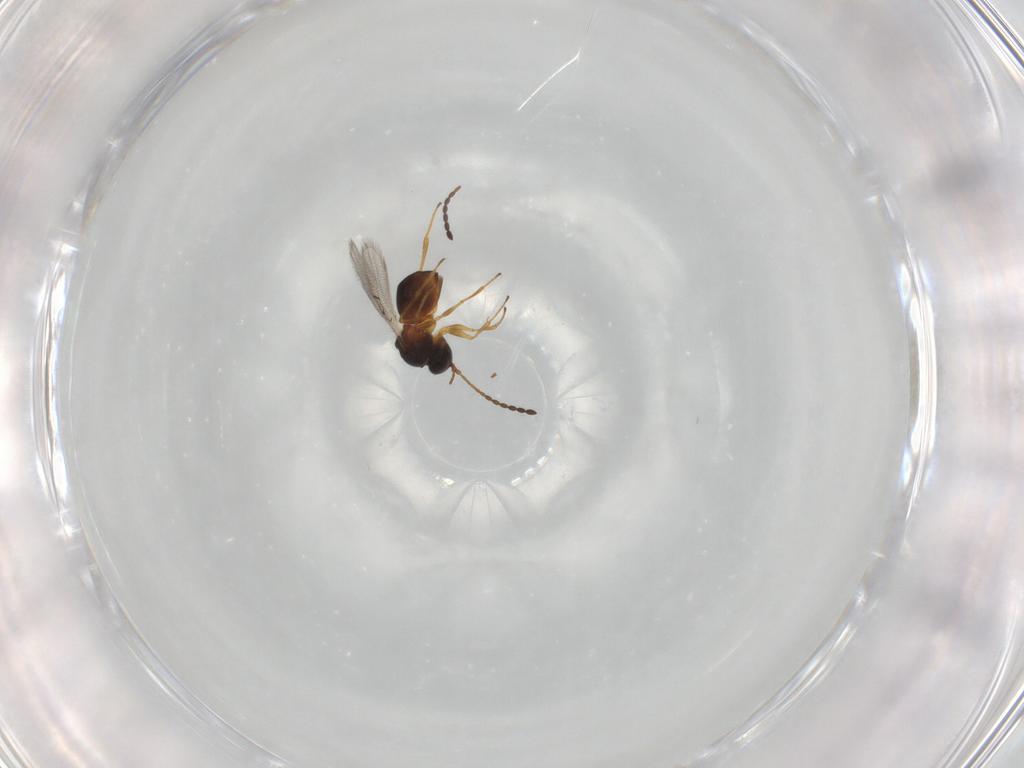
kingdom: Animalia
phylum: Arthropoda
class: Insecta
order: Hymenoptera
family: Figitidae
